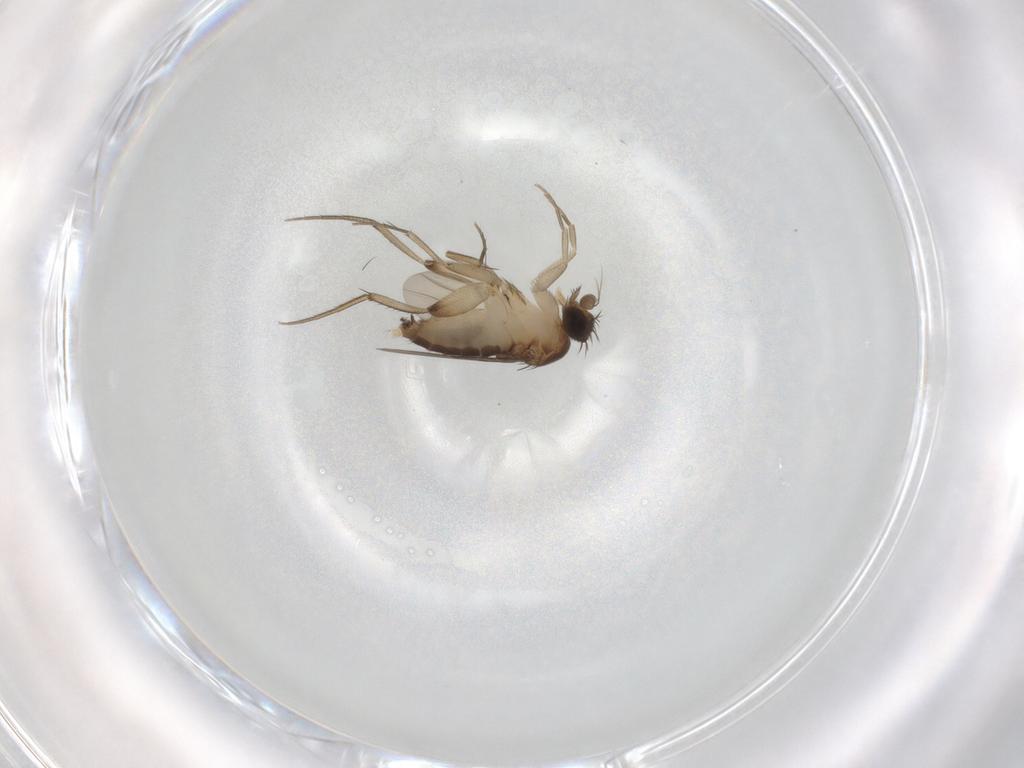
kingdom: Animalia
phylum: Arthropoda
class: Insecta
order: Diptera
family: Phoridae
